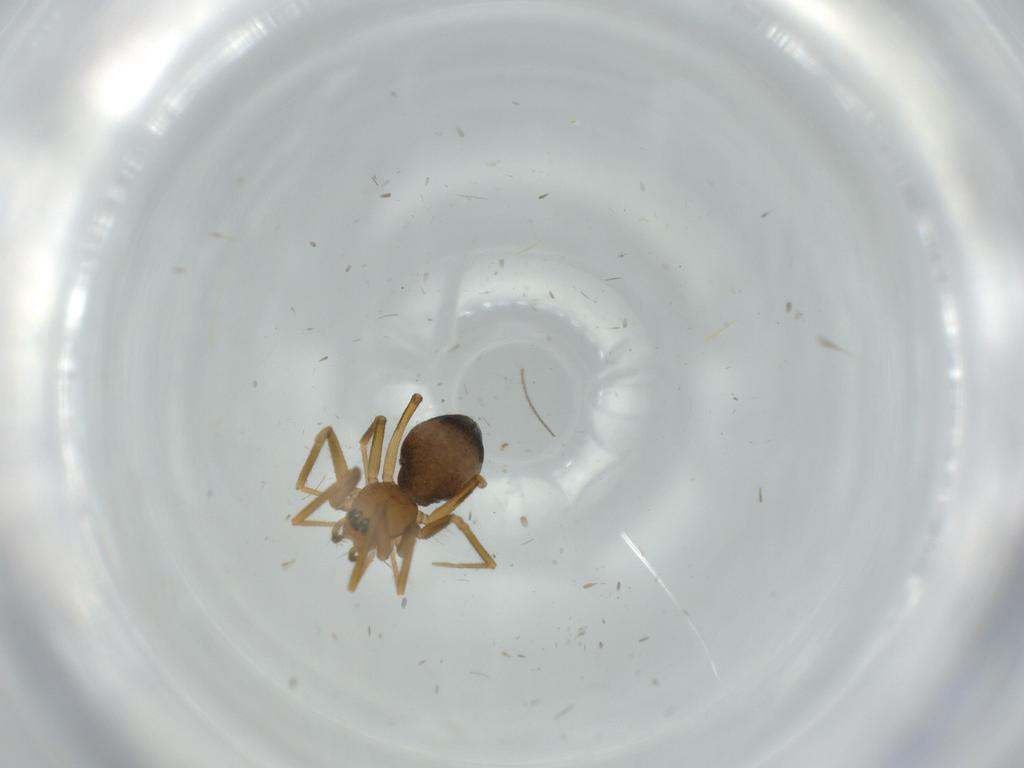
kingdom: Animalia
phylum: Arthropoda
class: Arachnida
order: Araneae
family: Linyphiidae
